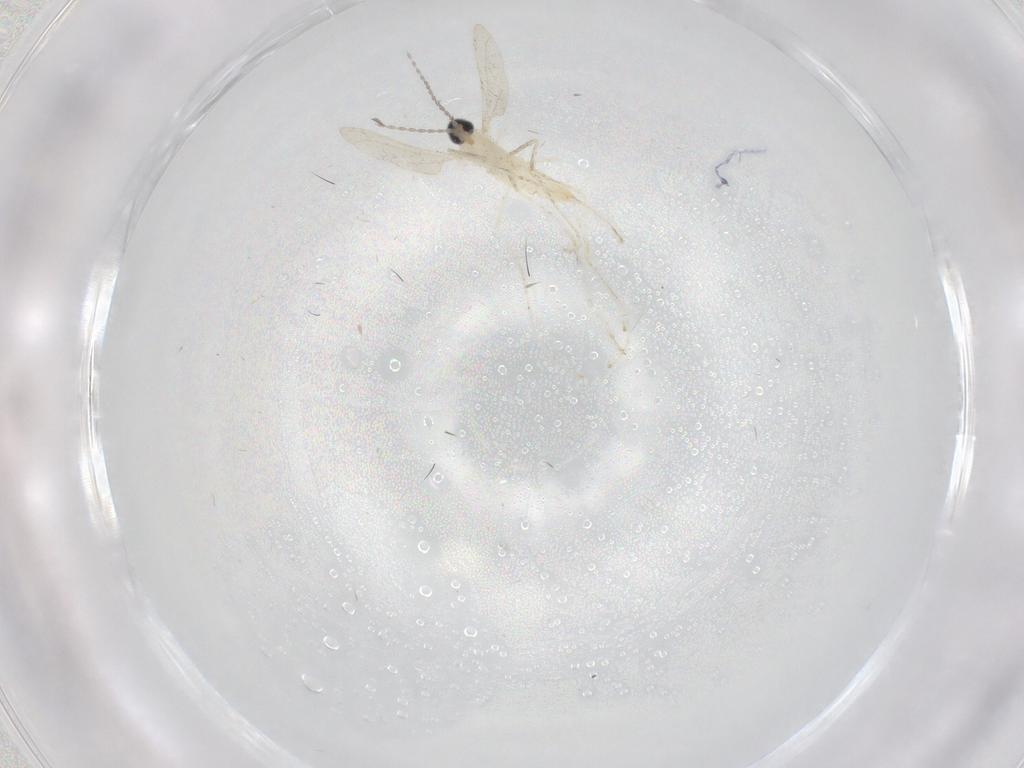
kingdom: Animalia
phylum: Arthropoda
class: Insecta
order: Diptera
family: Cecidomyiidae
